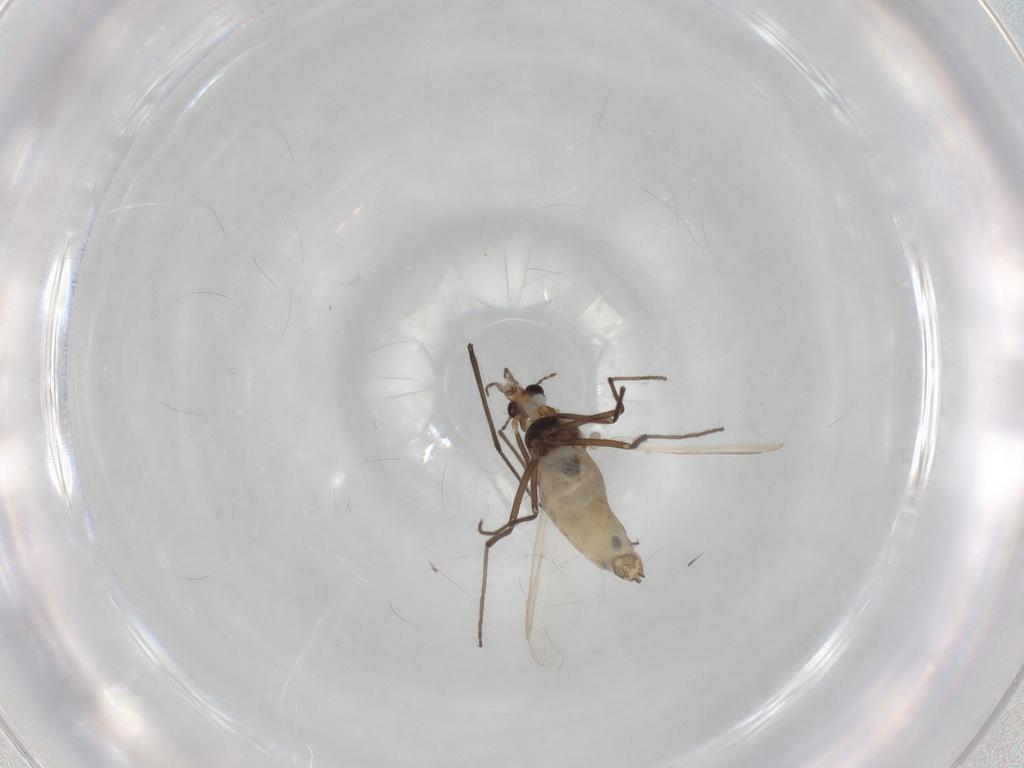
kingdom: Animalia
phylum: Arthropoda
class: Insecta
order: Diptera
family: Chironomidae
